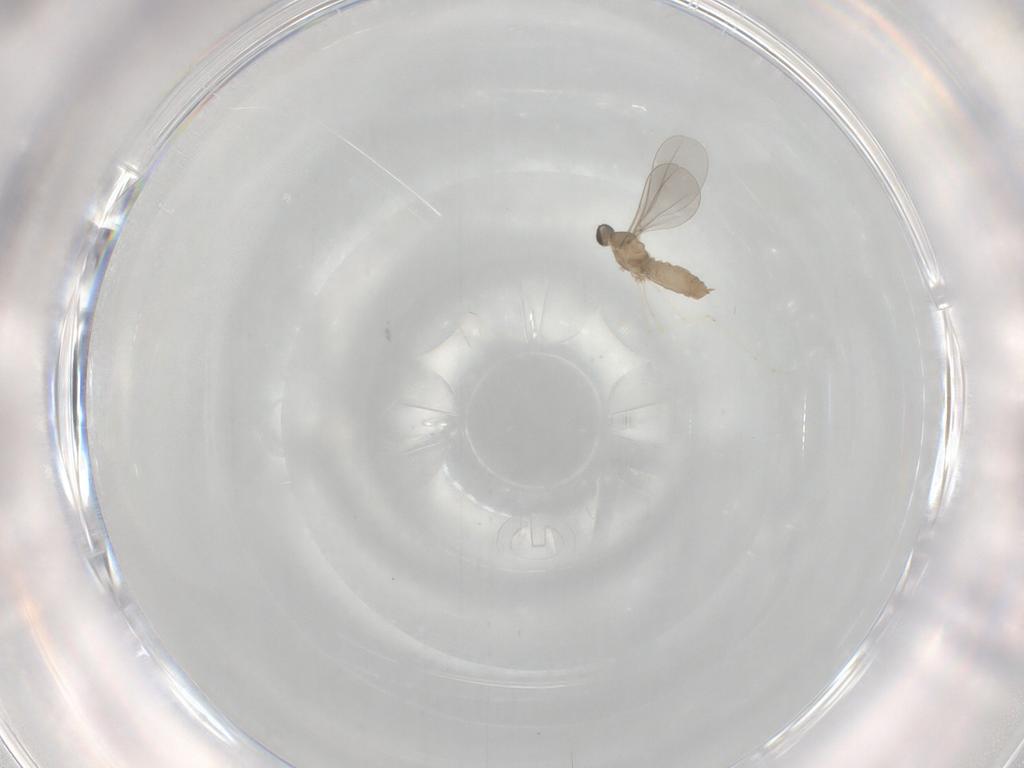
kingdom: Animalia
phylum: Arthropoda
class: Insecta
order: Diptera
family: Cecidomyiidae
